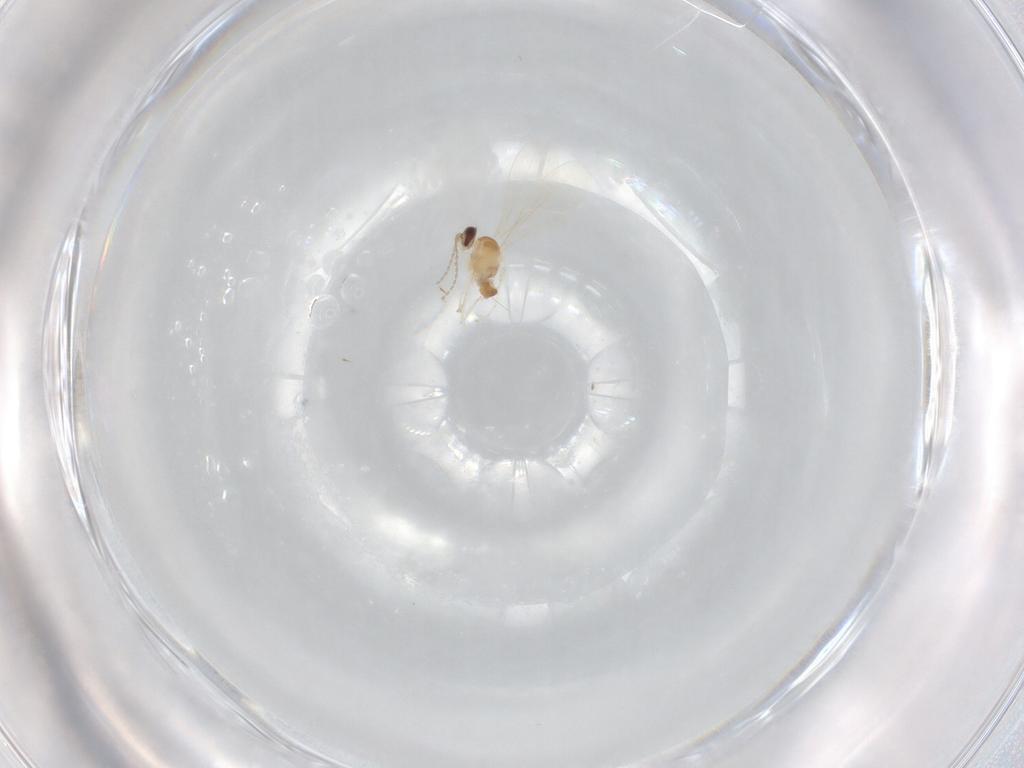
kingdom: Animalia
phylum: Arthropoda
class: Insecta
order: Diptera
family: Cecidomyiidae
